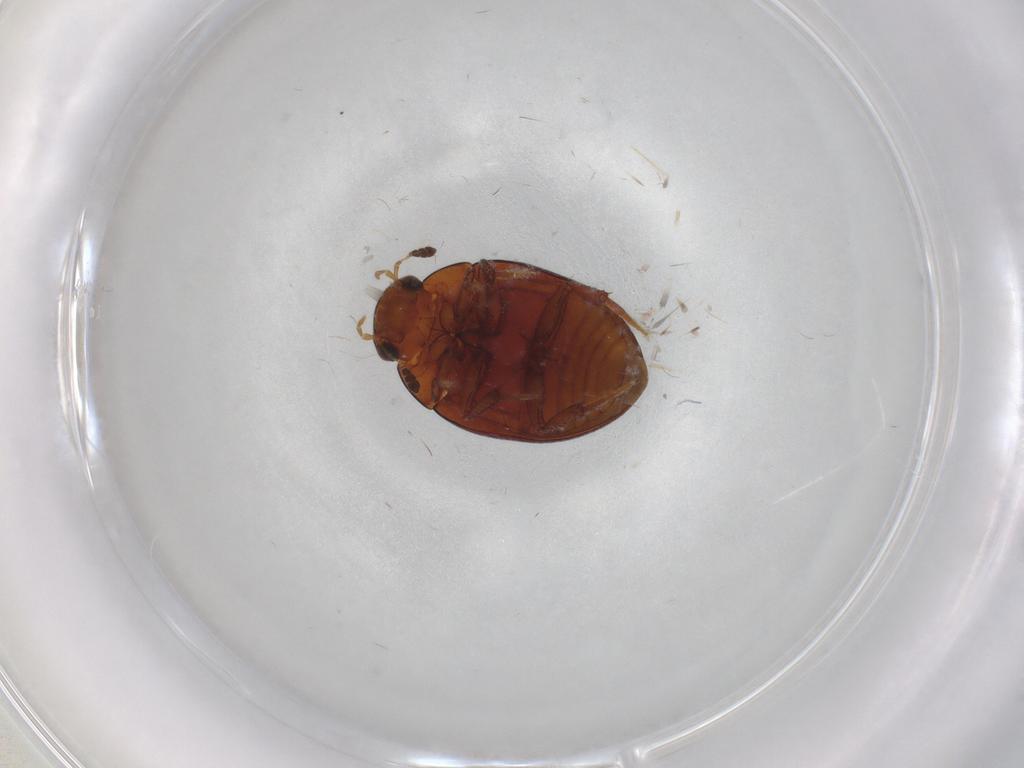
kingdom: Animalia
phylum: Arthropoda
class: Insecta
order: Coleoptera
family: Hydrophilidae
